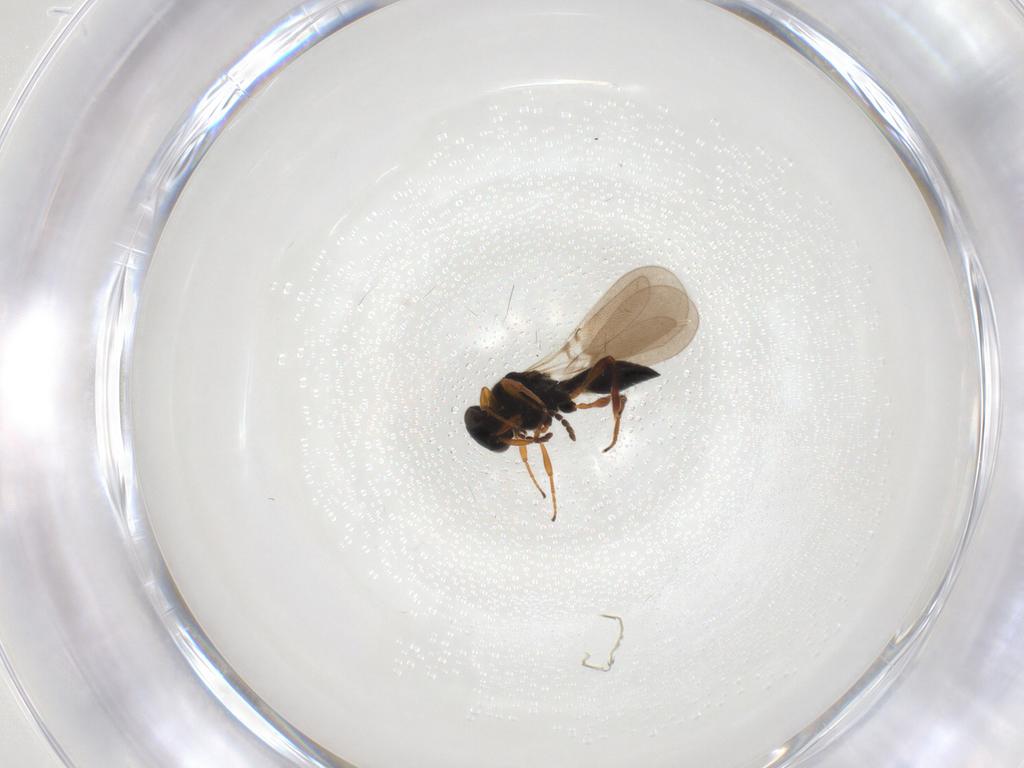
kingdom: Animalia
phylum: Arthropoda
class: Insecta
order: Hymenoptera
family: Platygastridae
